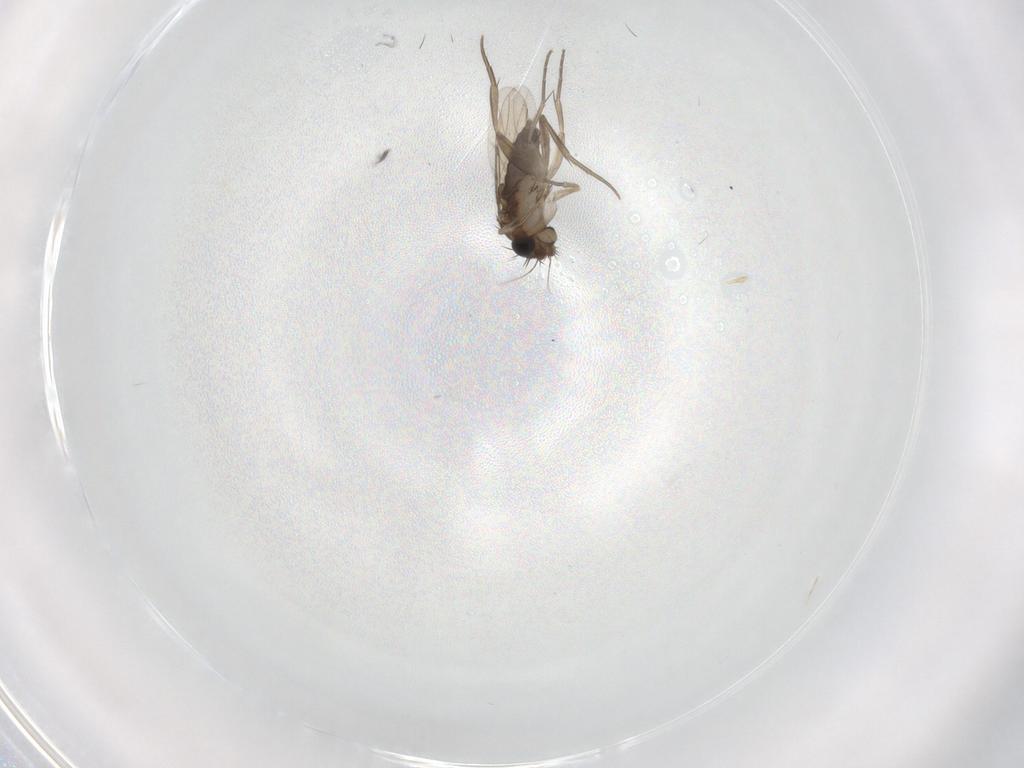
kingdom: Animalia
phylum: Arthropoda
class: Insecta
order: Diptera
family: Phoridae
